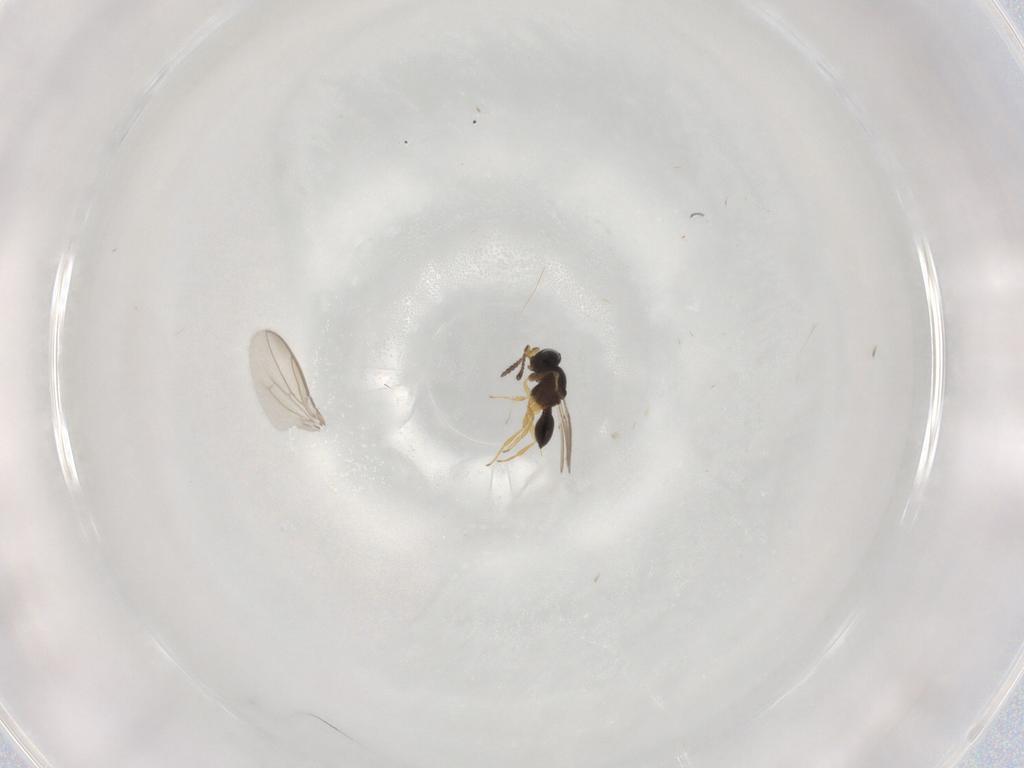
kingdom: Animalia
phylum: Arthropoda
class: Insecta
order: Hymenoptera
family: Scelionidae
